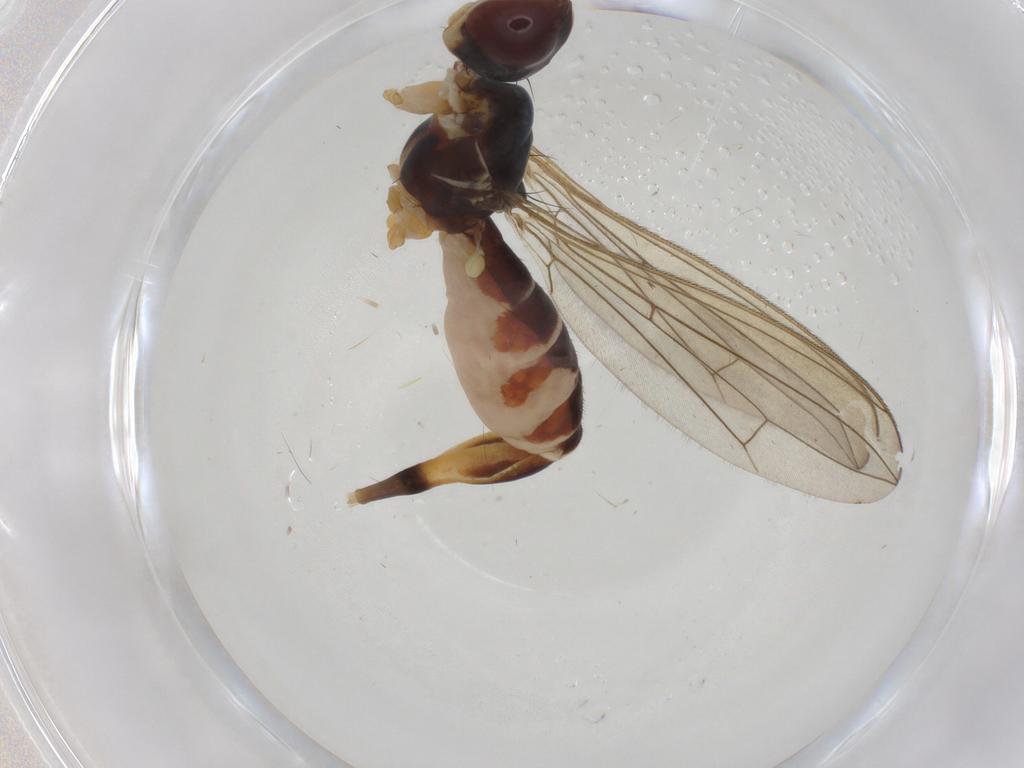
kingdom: Animalia
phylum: Arthropoda
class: Insecta
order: Diptera
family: Micropezidae
